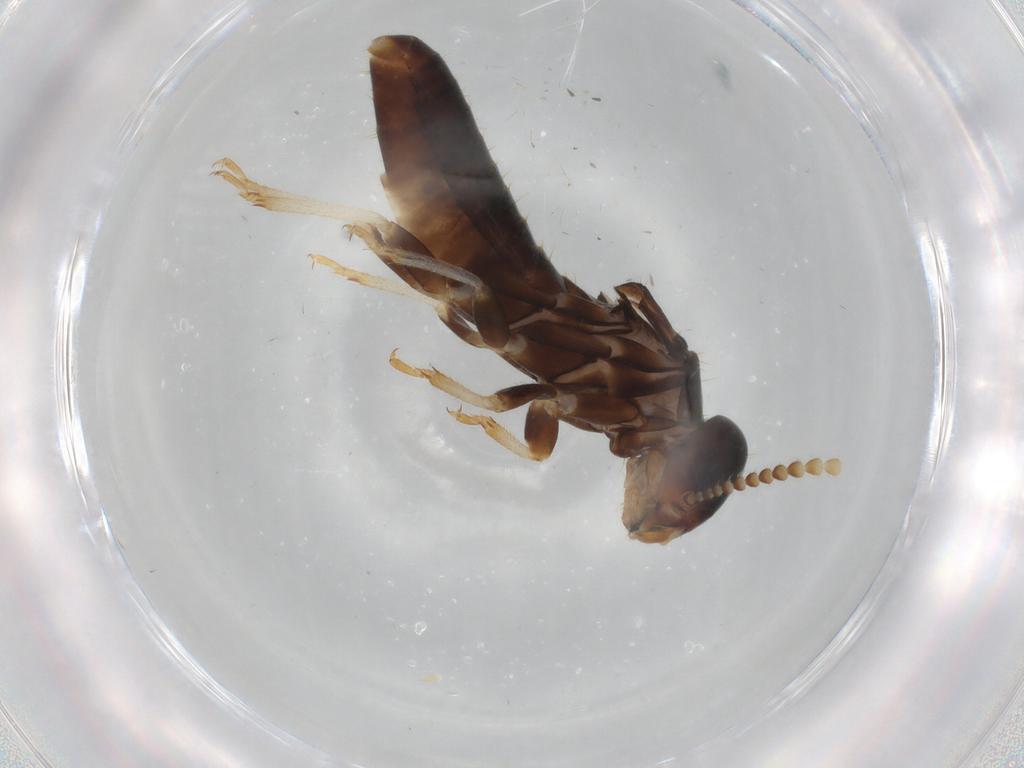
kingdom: Animalia
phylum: Arthropoda
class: Insecta
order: Blattodea
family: Kalotermitidae
